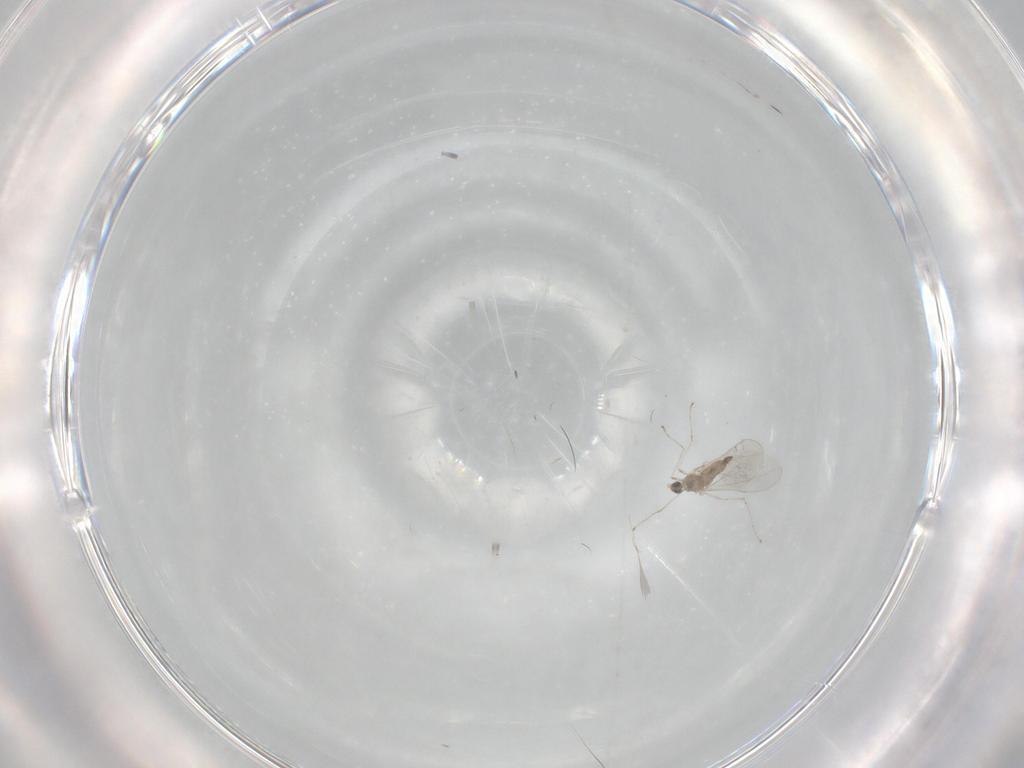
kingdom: Animalia
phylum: Arthropoda
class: Insecta
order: Diptera
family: Cecidomyiidae
